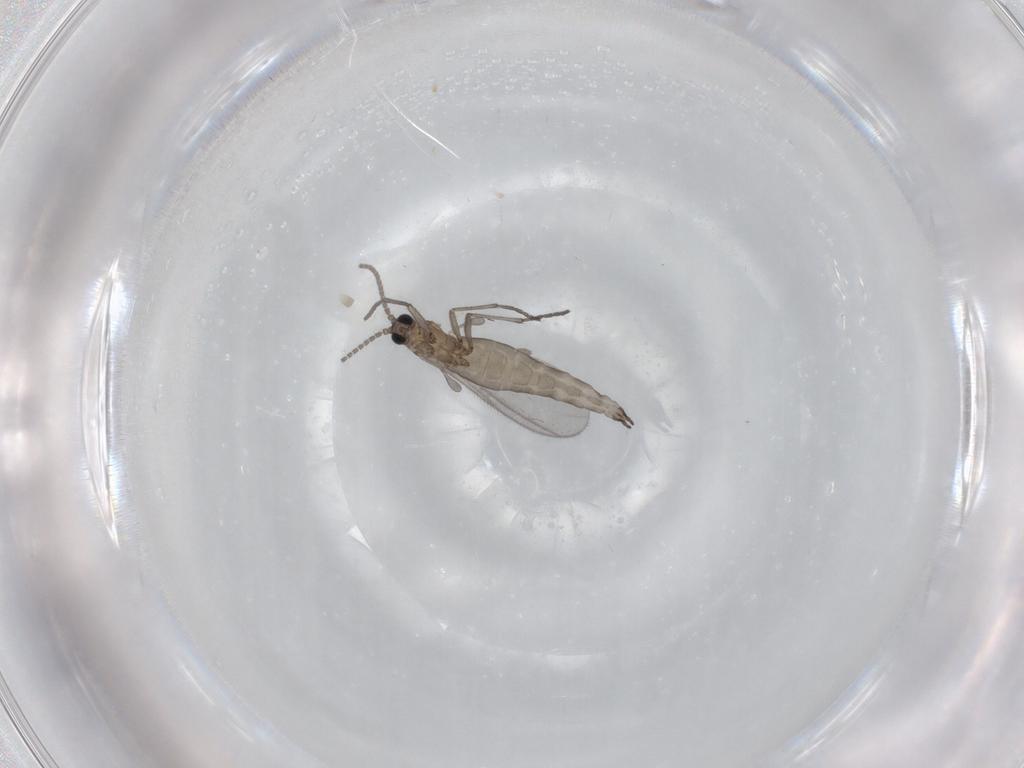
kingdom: Animalia
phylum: Arthropoda
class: Insecta
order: Diptera
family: Sciaridae
